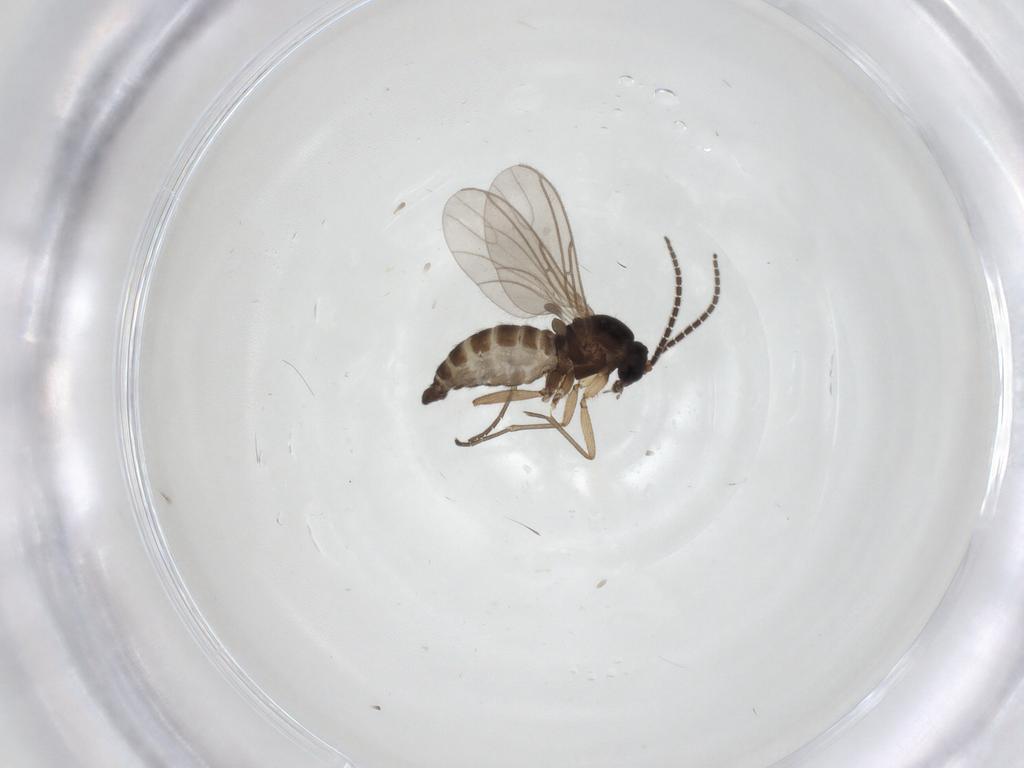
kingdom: Animalia
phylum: Arthropoda
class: Insecta
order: Diptera
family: Sciaridae
